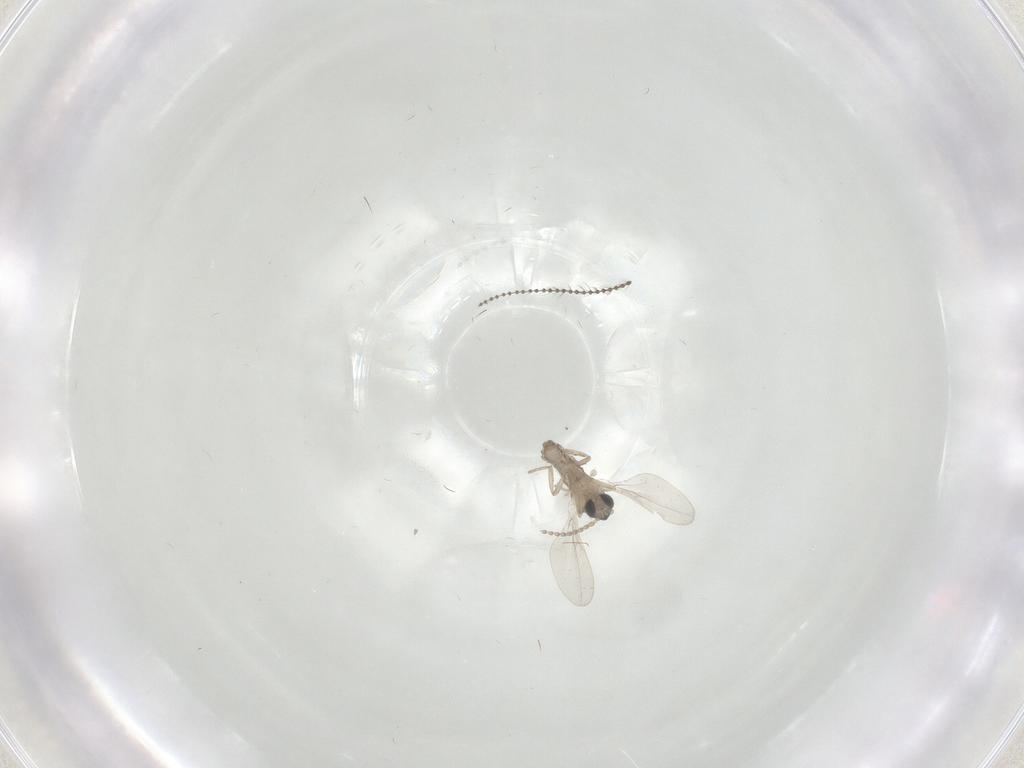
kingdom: Animalia
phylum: Arthropoda
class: Insecta
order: Diptera
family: Cecidomyiidae
